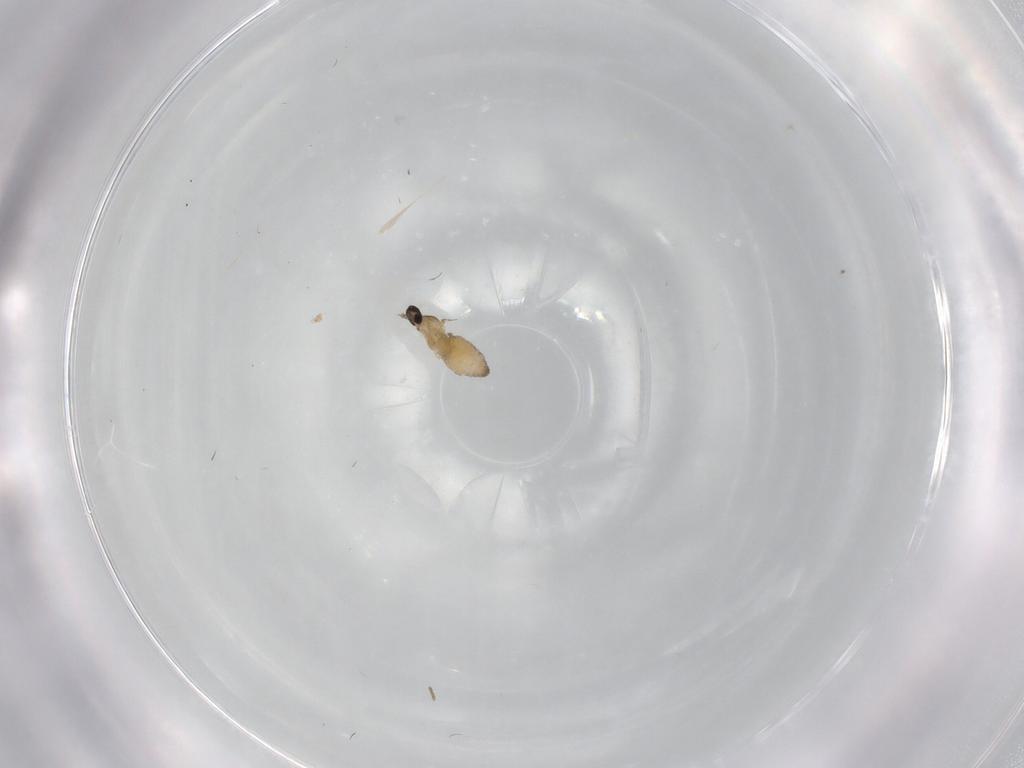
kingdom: Animalia
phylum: Arthropoda
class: Insecta
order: Diptera
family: Cecidomyiidae
